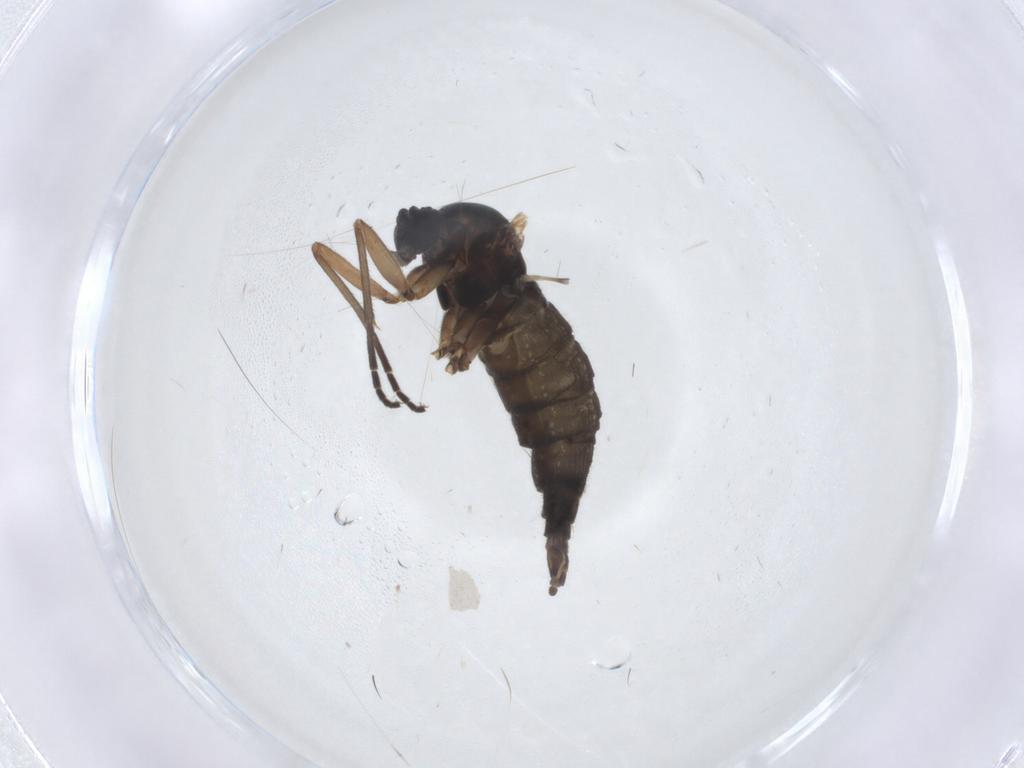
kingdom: Animalia
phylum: Arthropoda
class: Insecta
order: Diptera
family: Sciaridae
